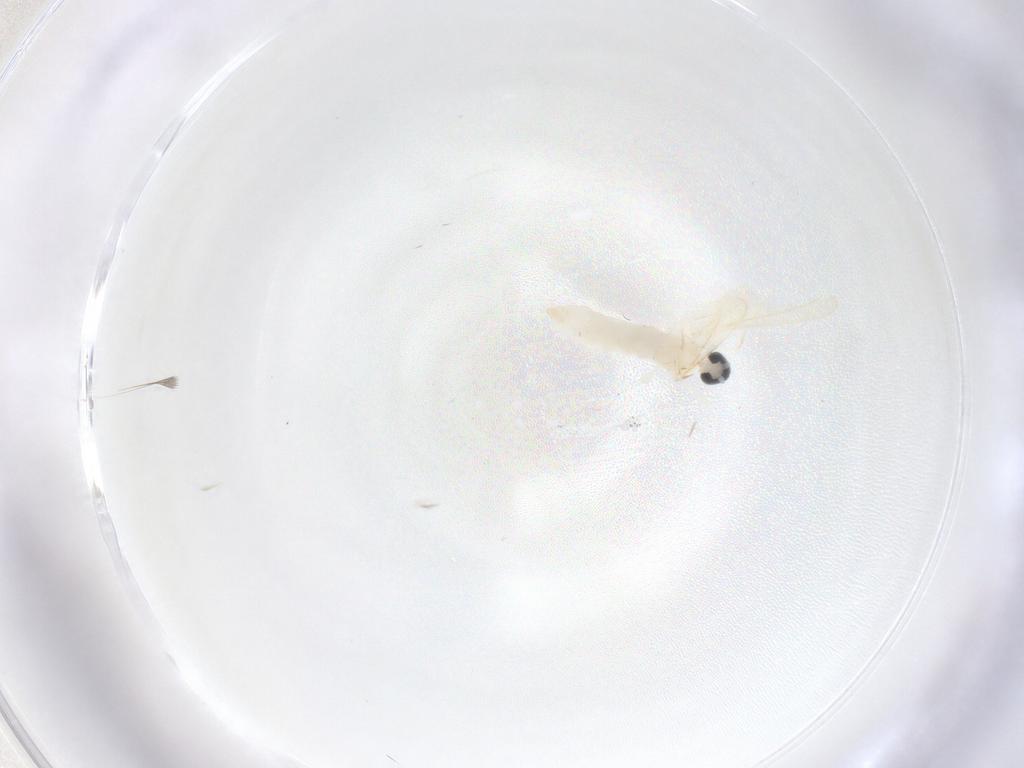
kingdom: Animalia
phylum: Arthropoda
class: Insecta
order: Diptera
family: Cecidomyiidae
